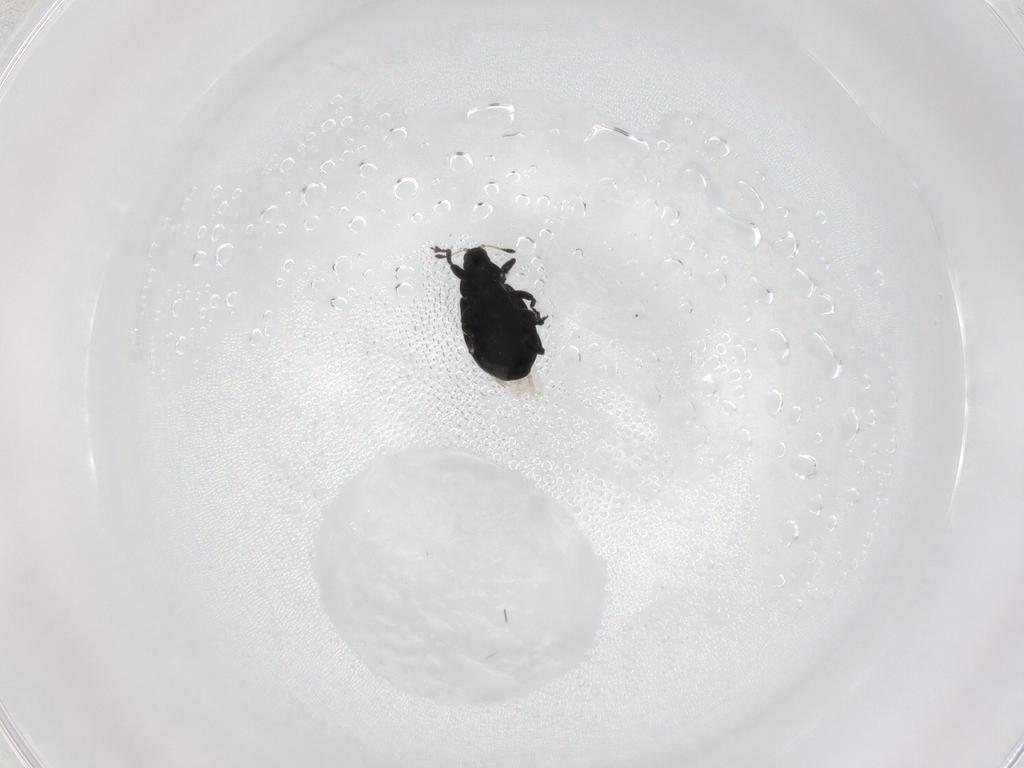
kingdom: Animalia
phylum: Arthropoda
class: Insecta
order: Coleoptera
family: Curculionidae
